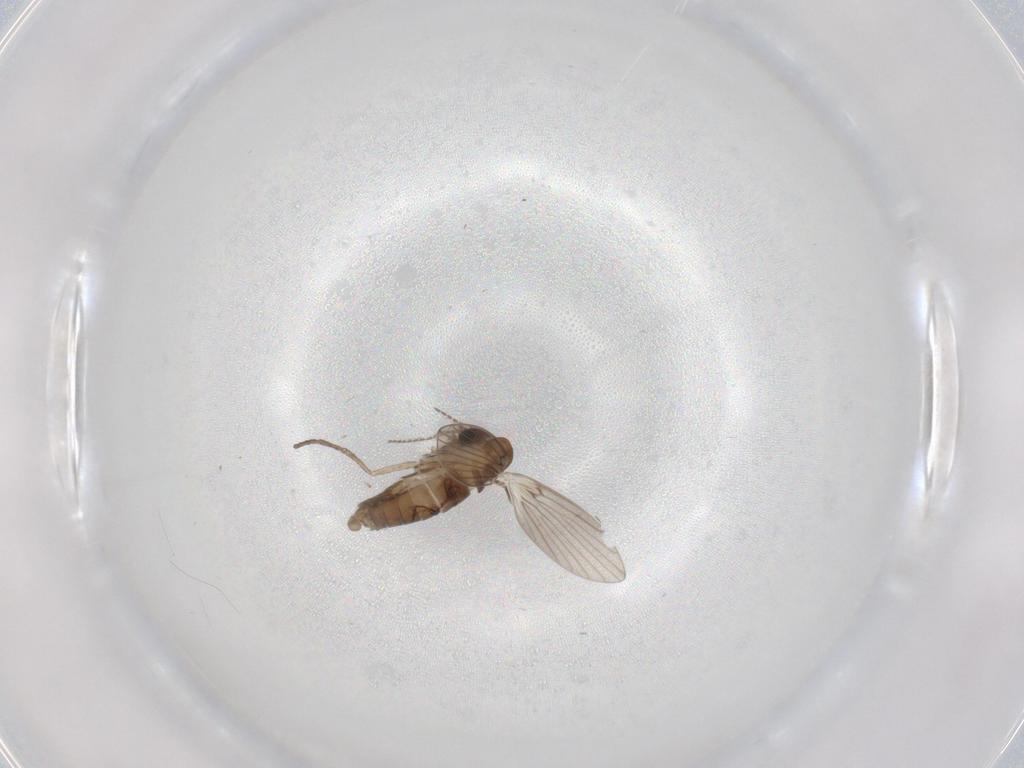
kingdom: Animalia
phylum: Arthropoda
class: Insecta
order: Diptera
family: Psychodidae
